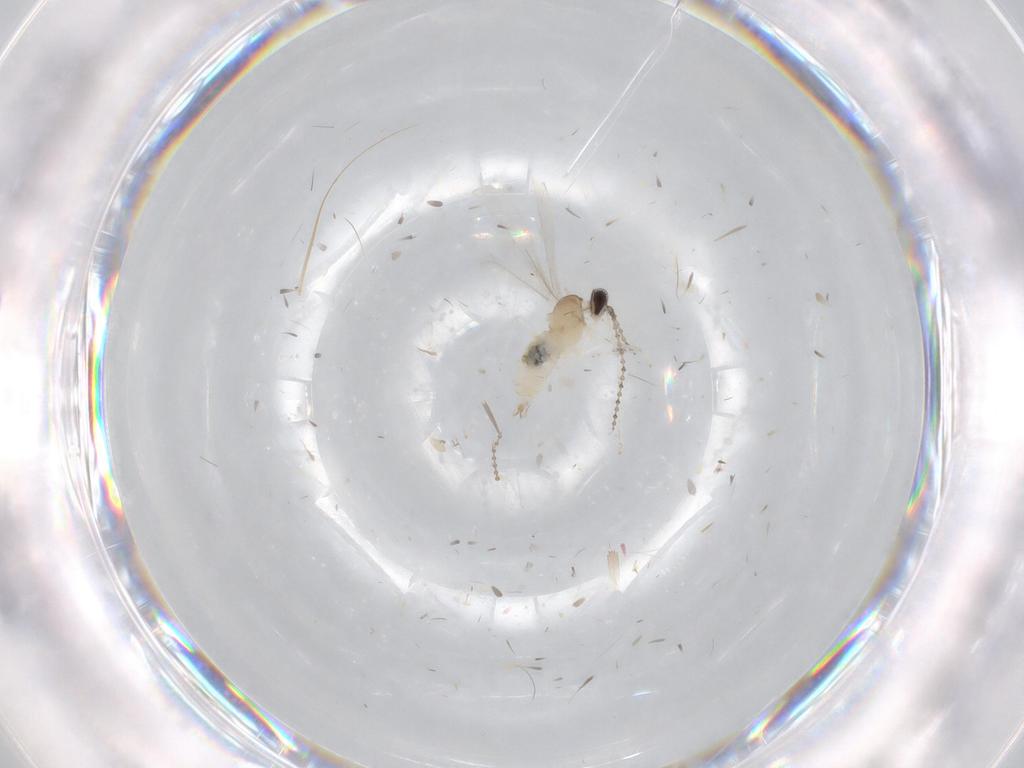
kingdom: Animalia
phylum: Arthropoda
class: Insecta
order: Diptera
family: Cecidomyiidae
